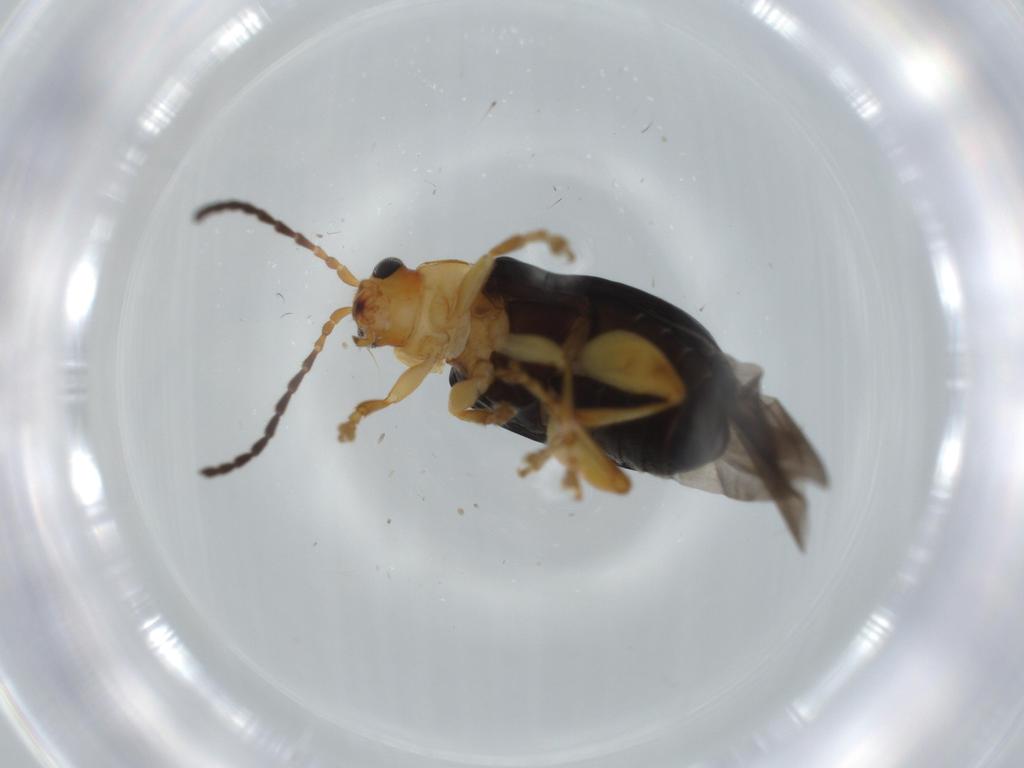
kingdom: Animalia
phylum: Arthropoda
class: Insecta
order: Coleoptera
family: Chrysomelidae
